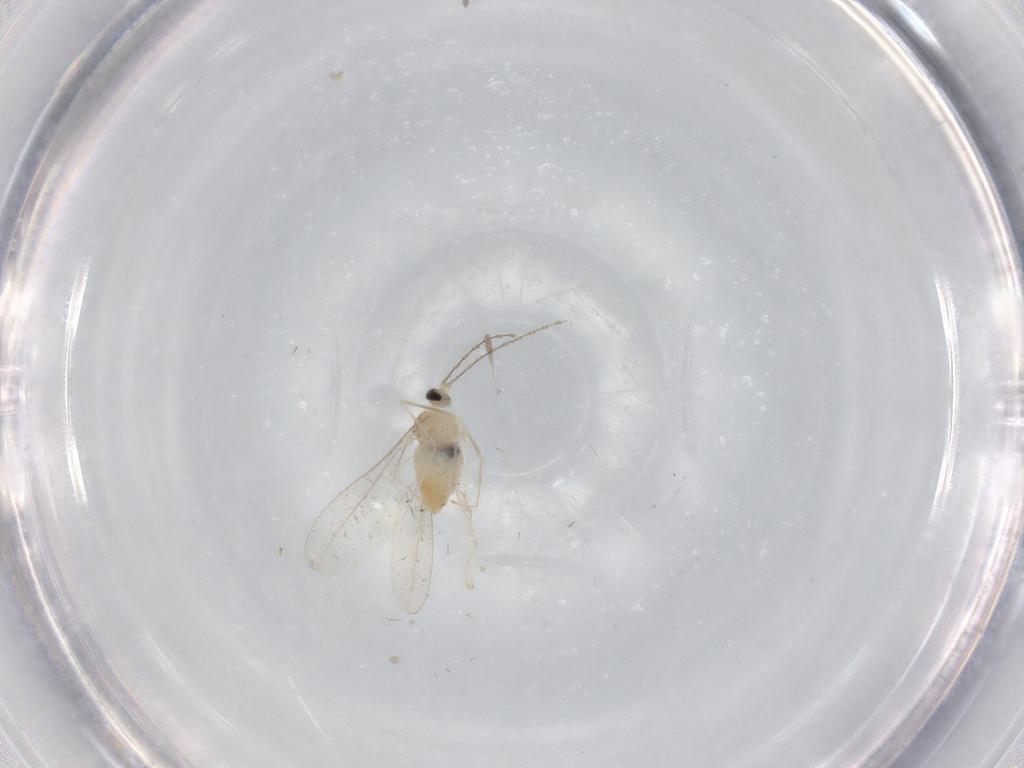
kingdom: Animalia
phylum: Arthropoda
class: Insecta
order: Diptera
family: Cecidomyiidae
